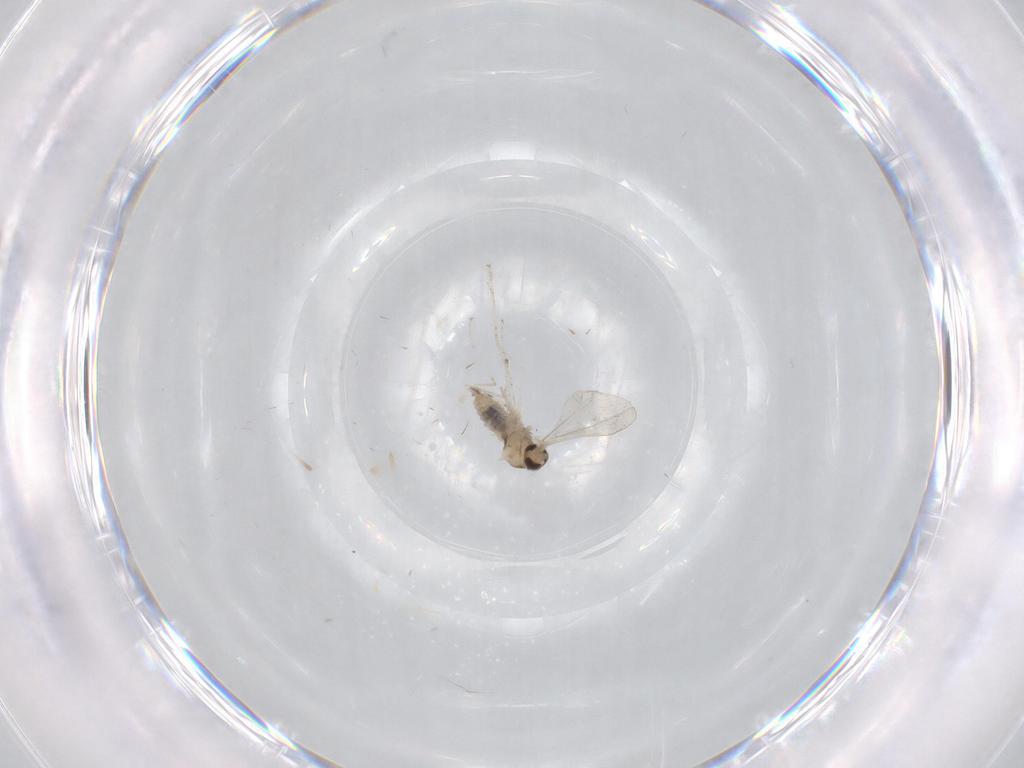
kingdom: Animalia
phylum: Arthropoda
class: Insecta
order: Diptera
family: Cecidomyiidae
